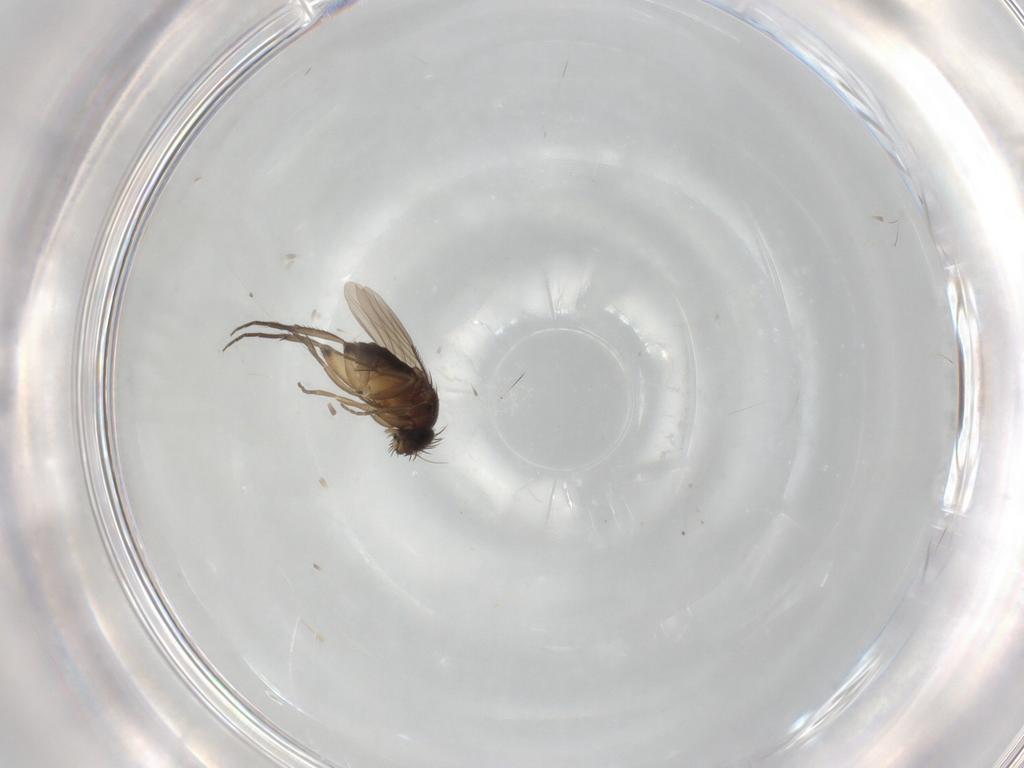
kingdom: Animalia
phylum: Arthropoda
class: Insecta
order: Diptera
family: Phoridae
